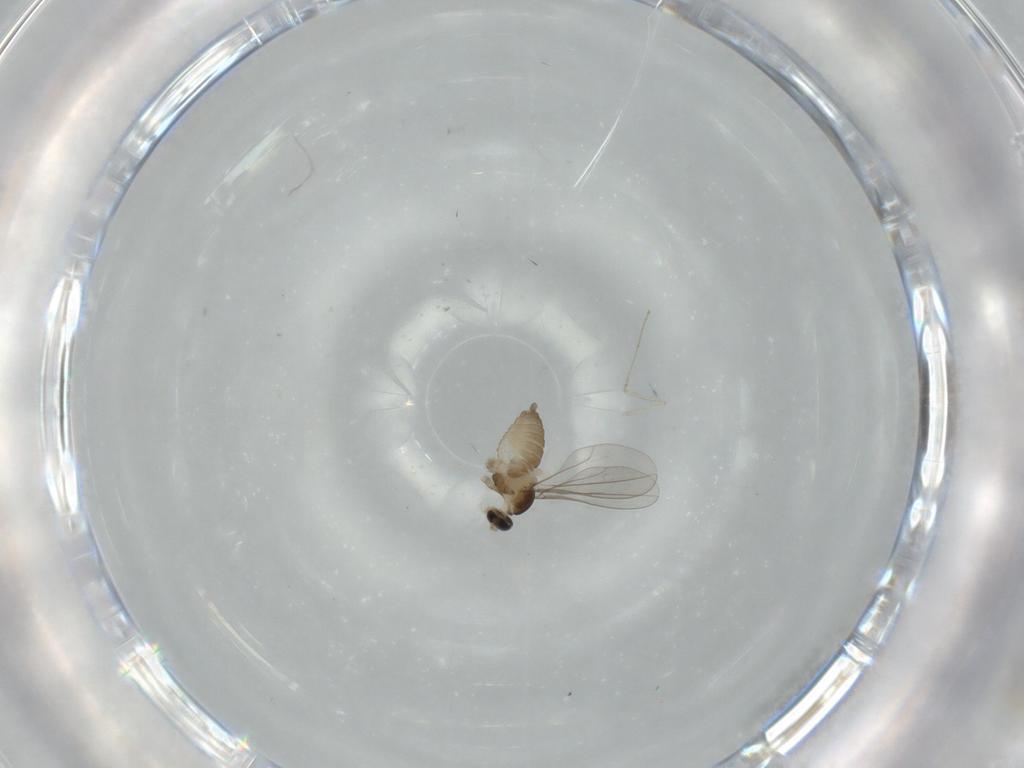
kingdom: Animalia
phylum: Arthropoda
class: Insecta
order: Diptera
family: Cecidomyiidae
